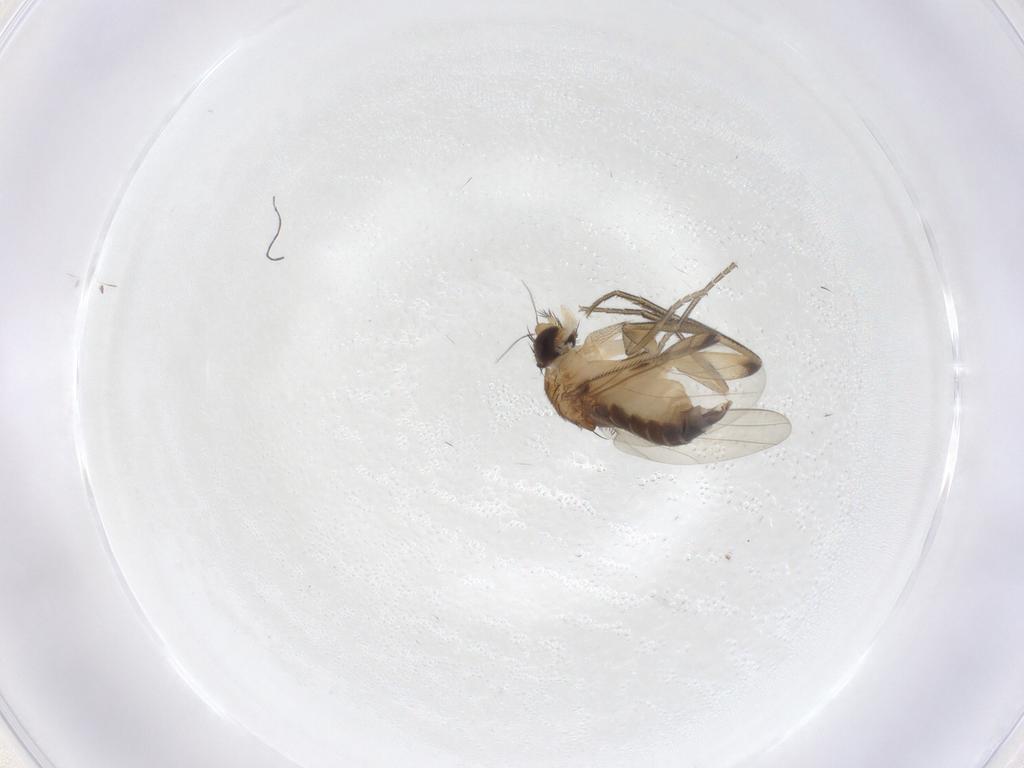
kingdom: Animalia
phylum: Arthropoda
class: Insecta
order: Diptera
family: Phoridae
